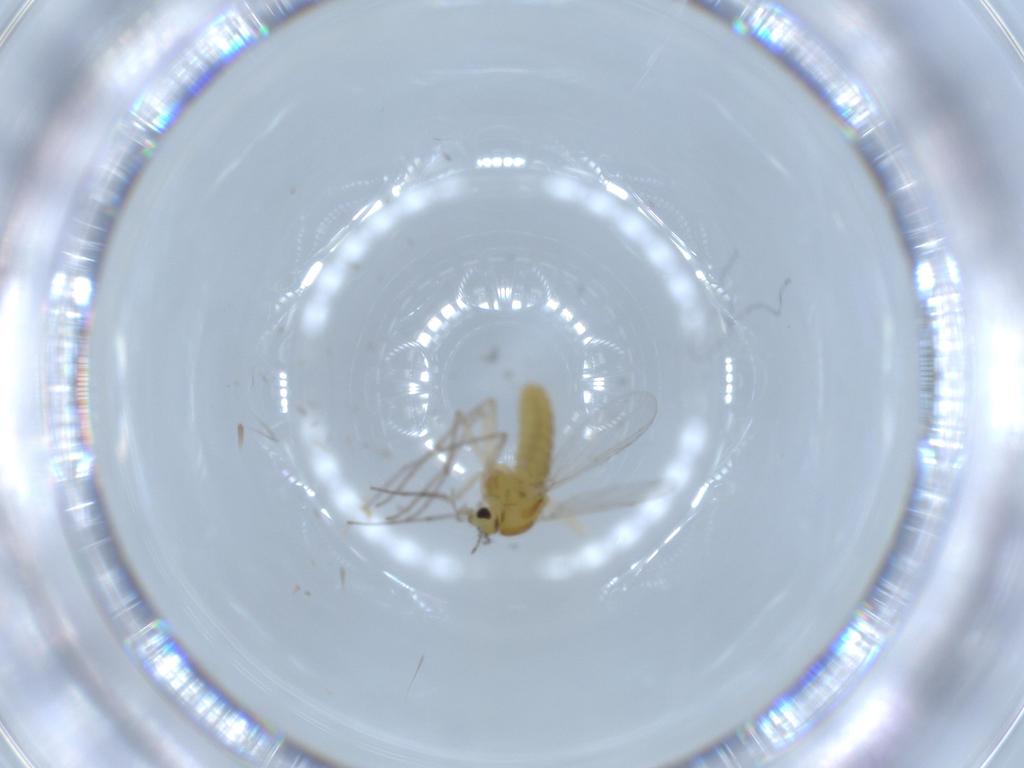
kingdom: Animalia
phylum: Arthropoda
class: Insecta
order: Diptera
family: Chironomidae
